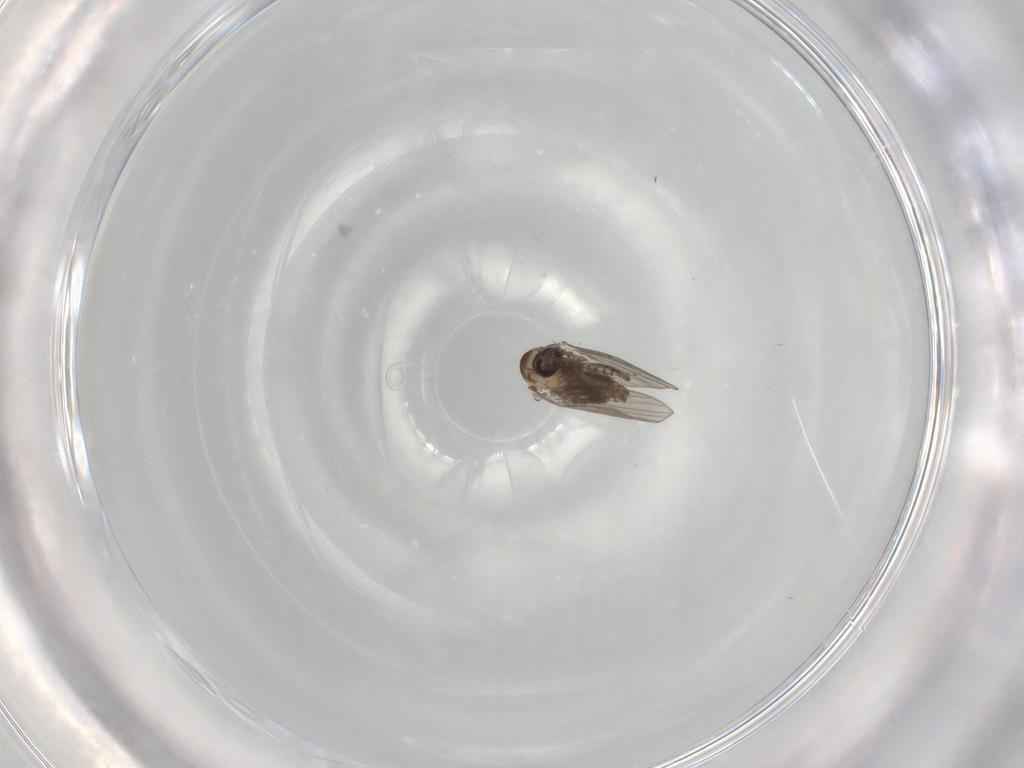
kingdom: Animalia
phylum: Arthropoda
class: Insecta
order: Diptera
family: Psychodidae
